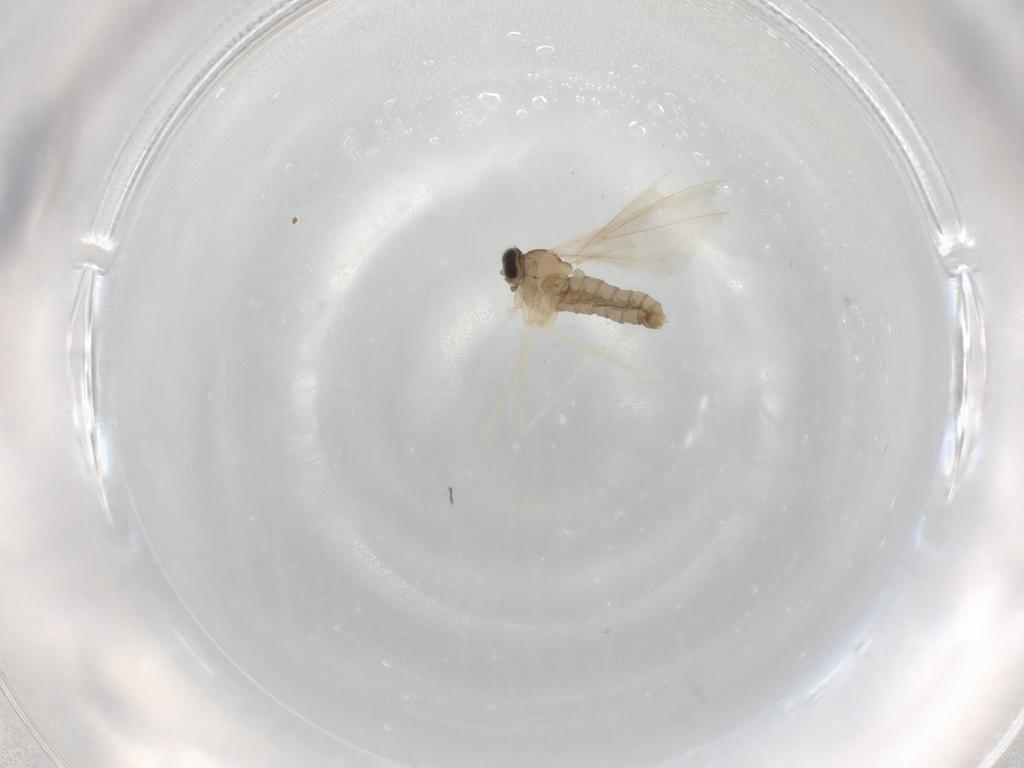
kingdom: Animalia
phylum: Arthropoda
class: Insecta
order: Diptera
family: Cecidomyiidae
